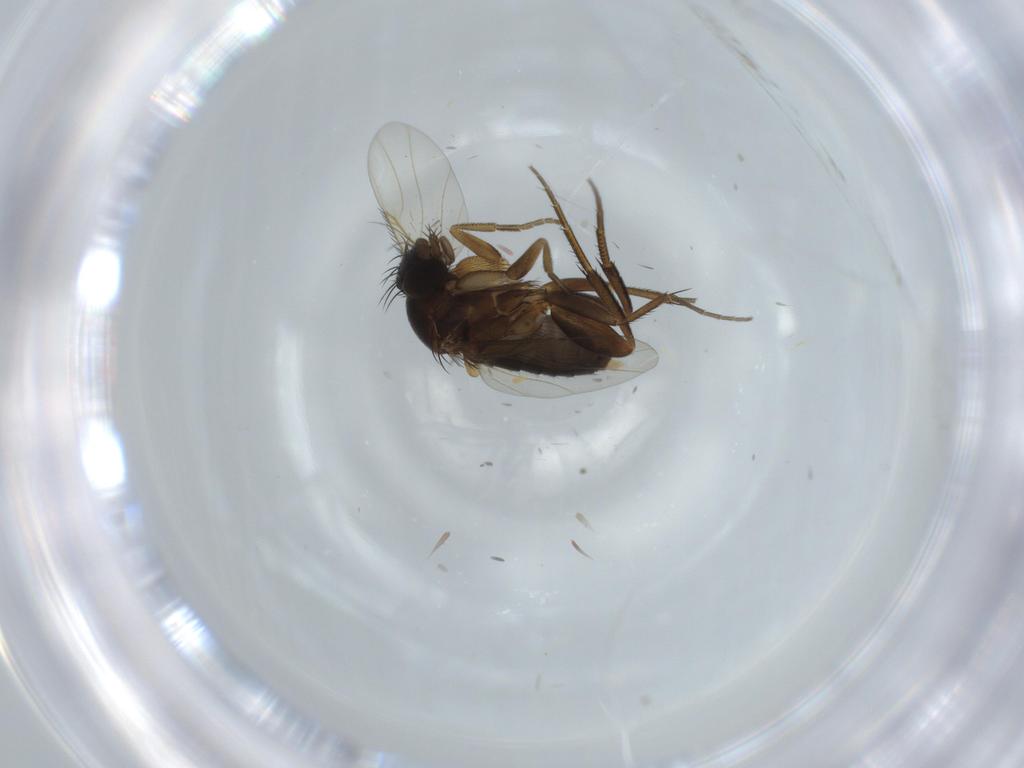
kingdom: Animalia
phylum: Arthropoda
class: Insecta
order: Diptera
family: Phoridae
